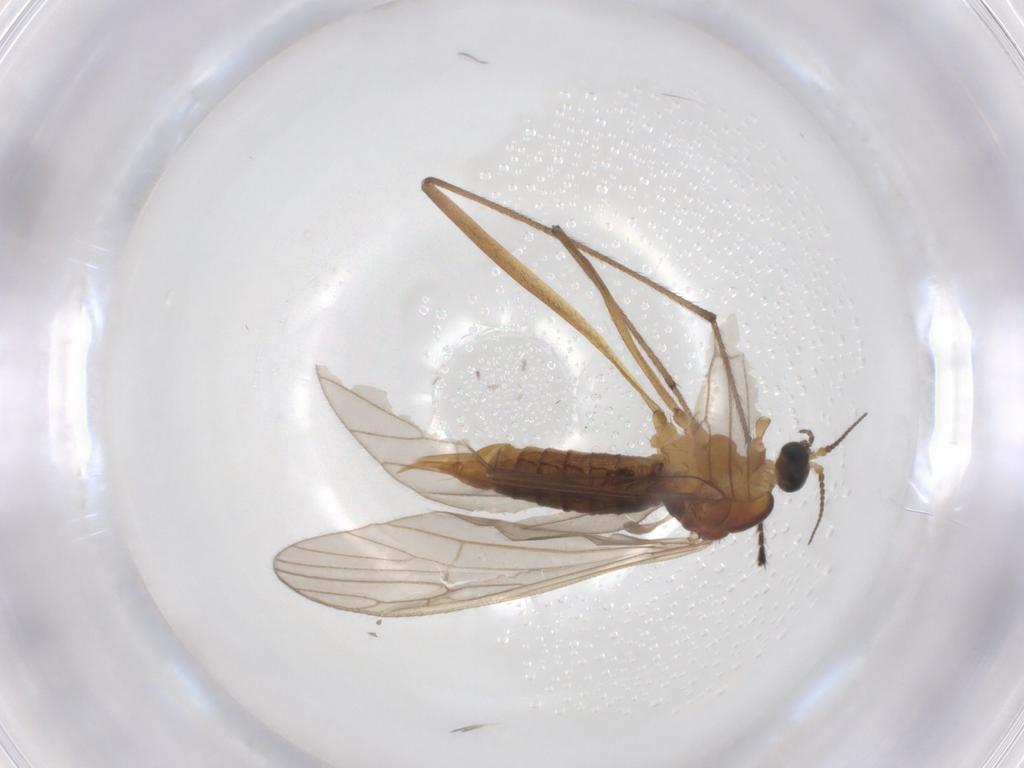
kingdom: Animalia
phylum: Arthropoda
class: Insecta
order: Diptera
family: Limoniidae
